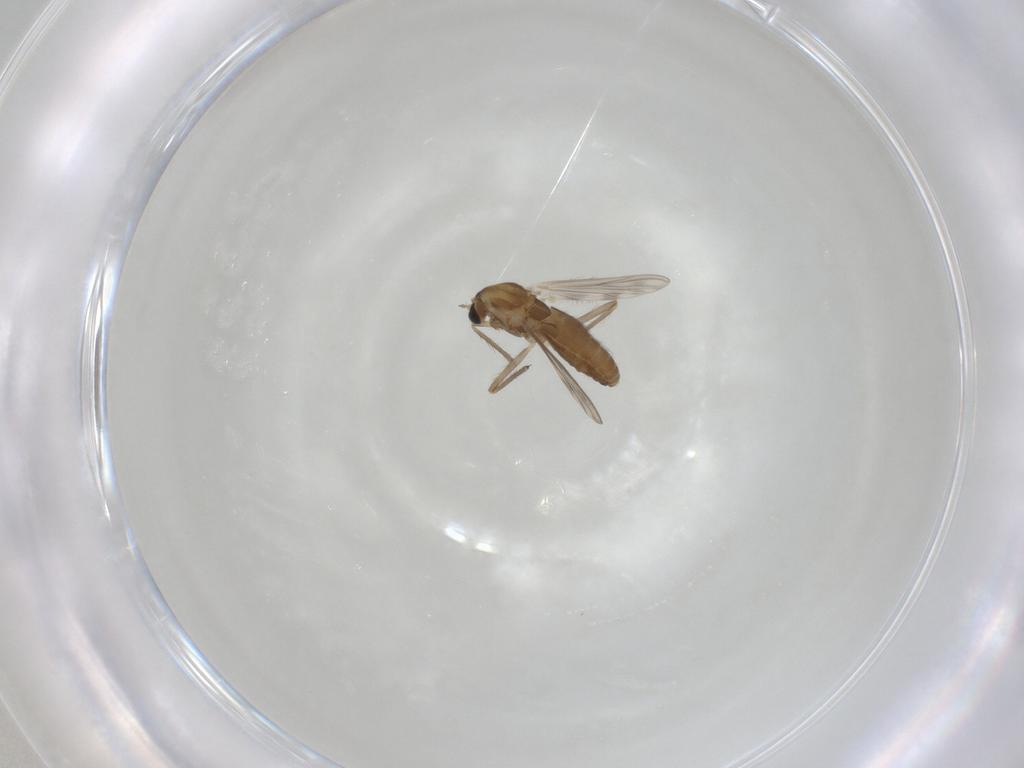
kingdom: Animalia
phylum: Arthropoda
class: Insecta
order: Diptera
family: Chironomidae
